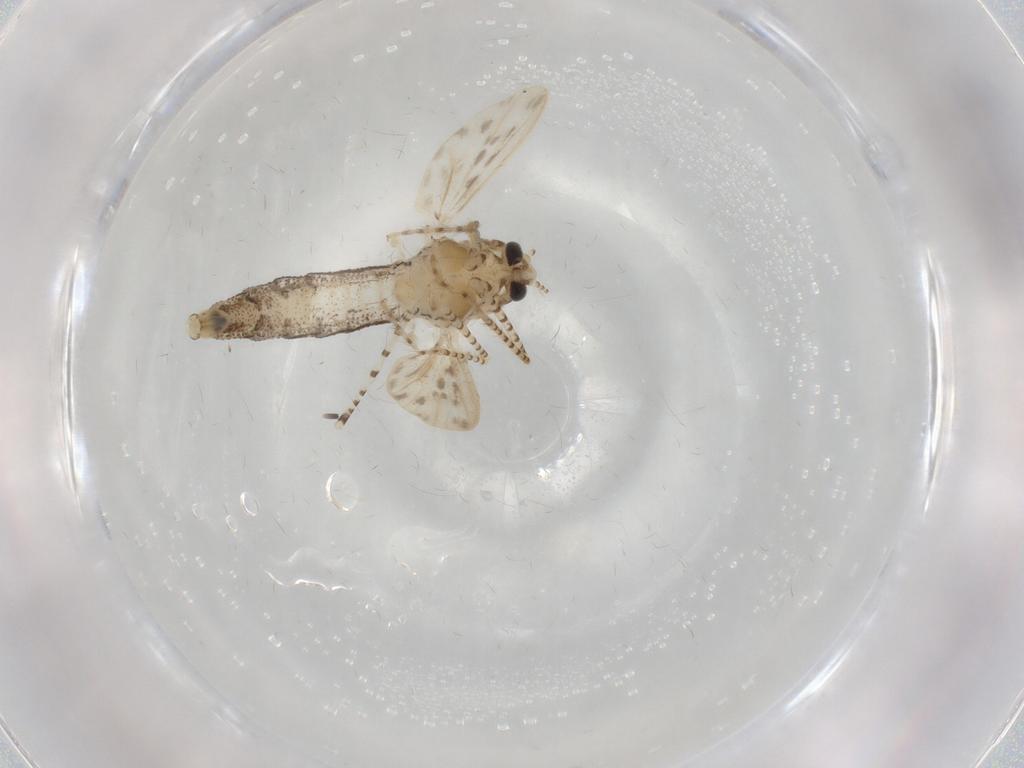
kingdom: Animalia
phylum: Arthropoda
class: Insecta
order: Diptera
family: Chaoboridae
